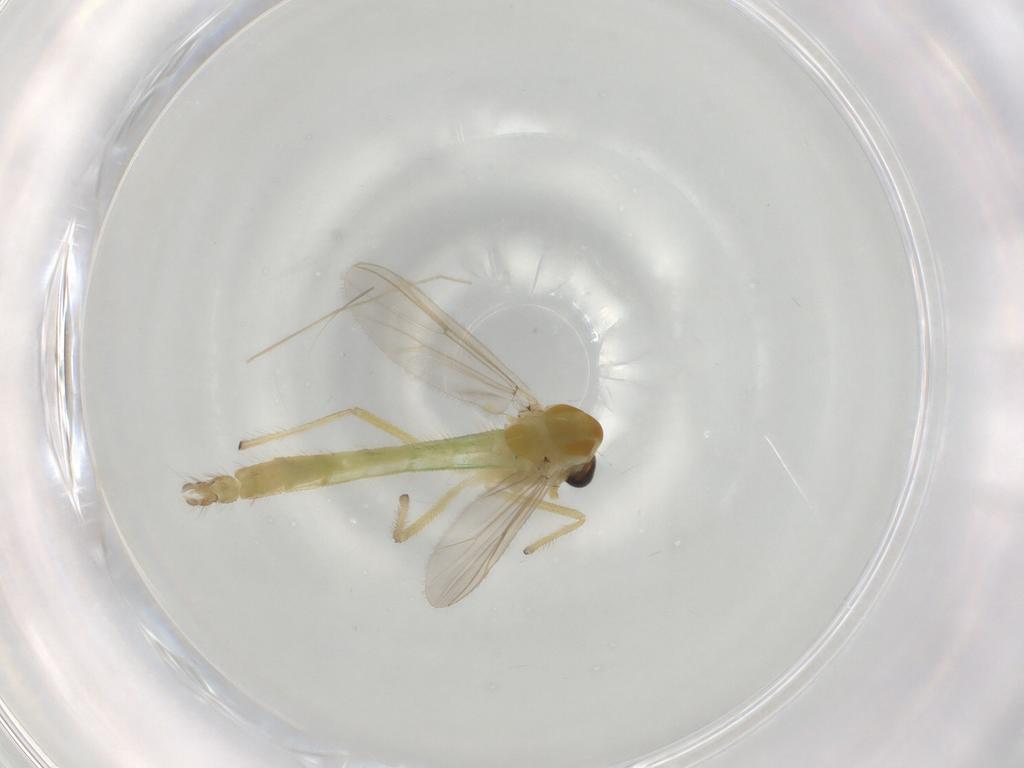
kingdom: Animalia
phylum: Arthropoda
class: Insecta
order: Diptera
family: Chironomidae
